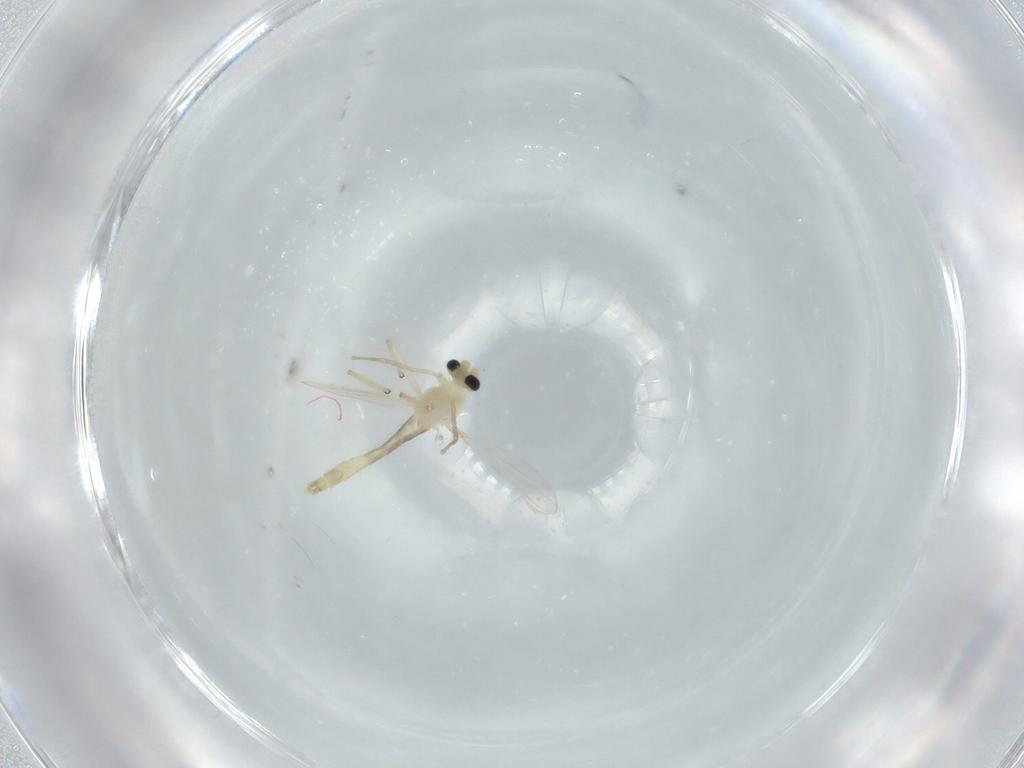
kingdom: Animalia
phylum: Arthropoda
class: Insecta
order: Diptera
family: Chironomidae
